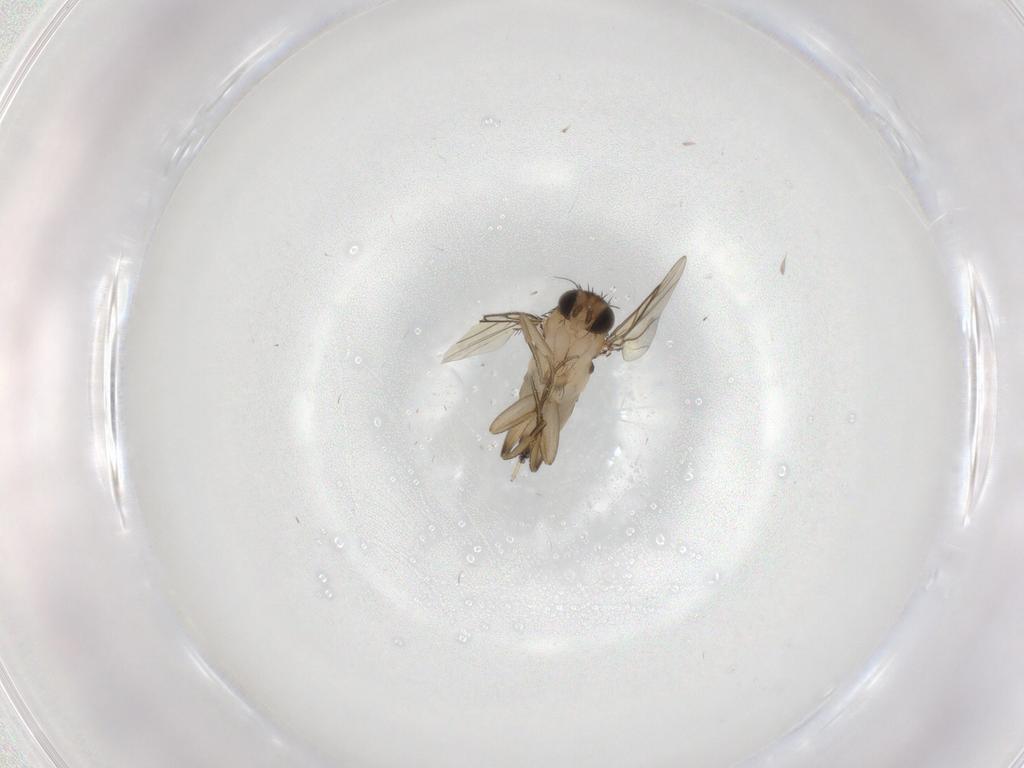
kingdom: Animalia
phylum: Arthropoda
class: Insecta
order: Diptera
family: Phoridae
